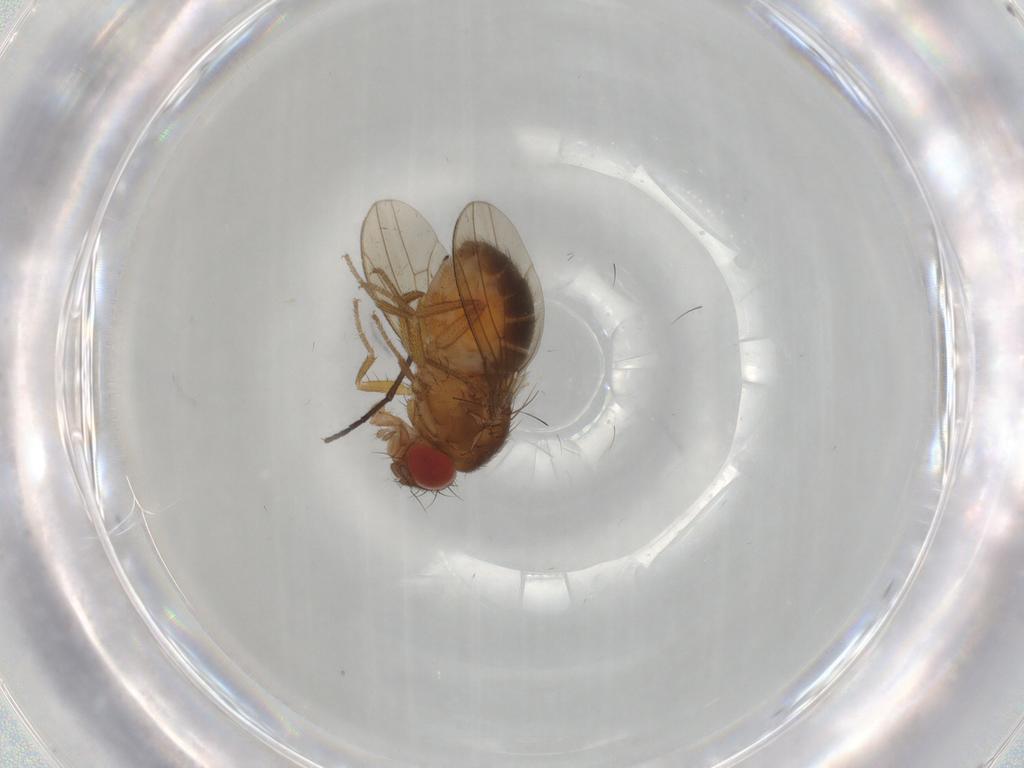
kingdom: Animalia
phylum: Arthropoda
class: Insecta
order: Diptera
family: Drosophilidae
